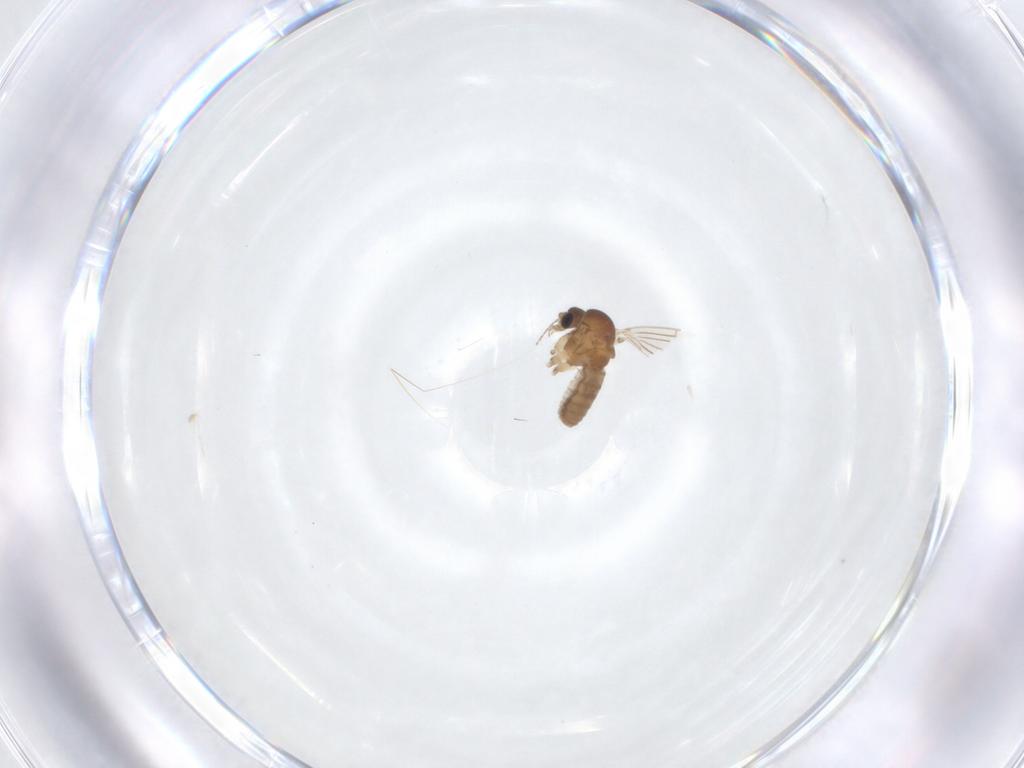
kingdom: Animalia
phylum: Arthropoda
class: Insecta
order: Diptera
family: Psychodidae
